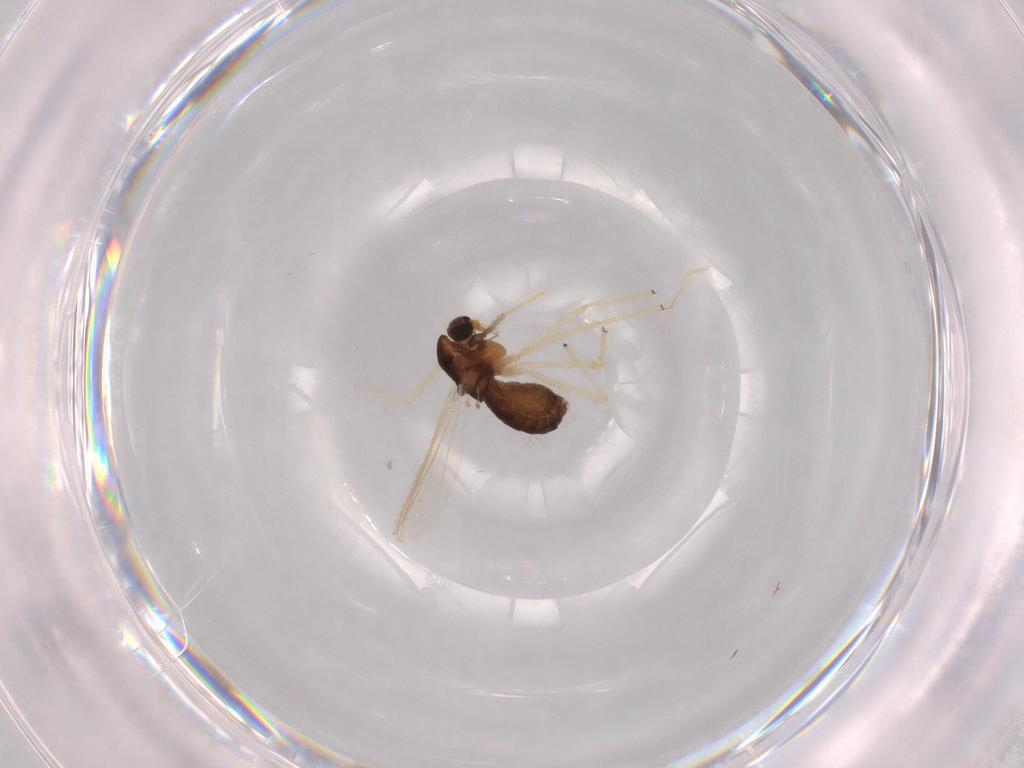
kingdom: Animalia
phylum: Arthropoda
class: Insecta
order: Diptera
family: Chironomidae
